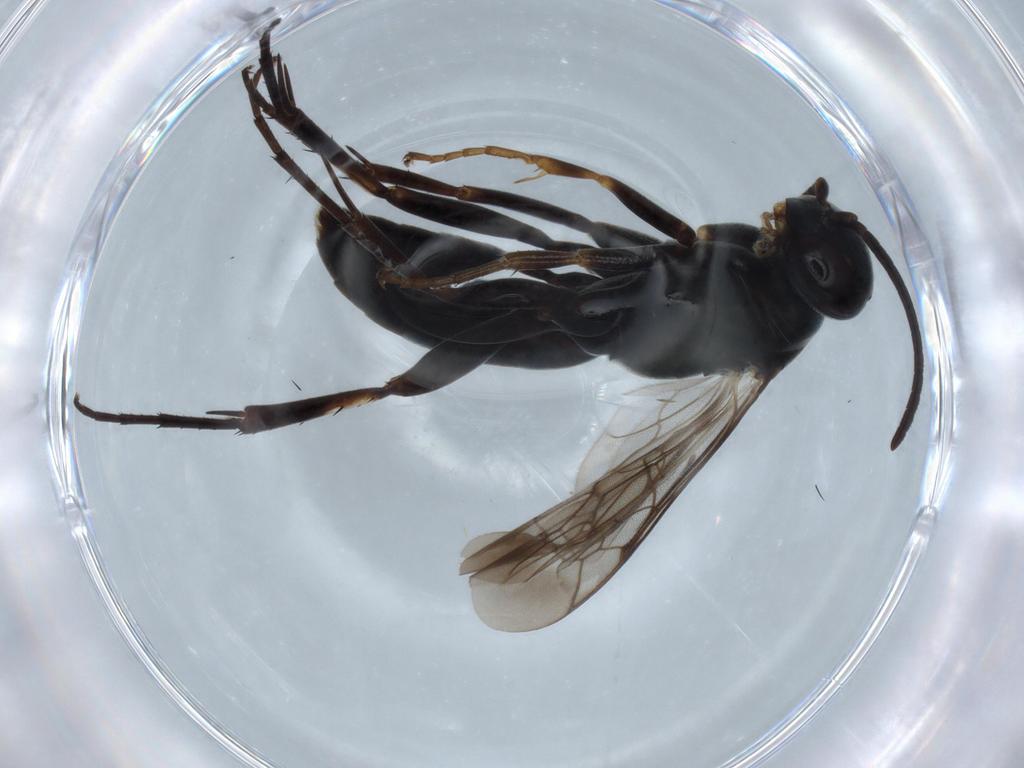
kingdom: Animalia
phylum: Arthropoda
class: Insecta
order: Hymenoptera
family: Pompilidae
